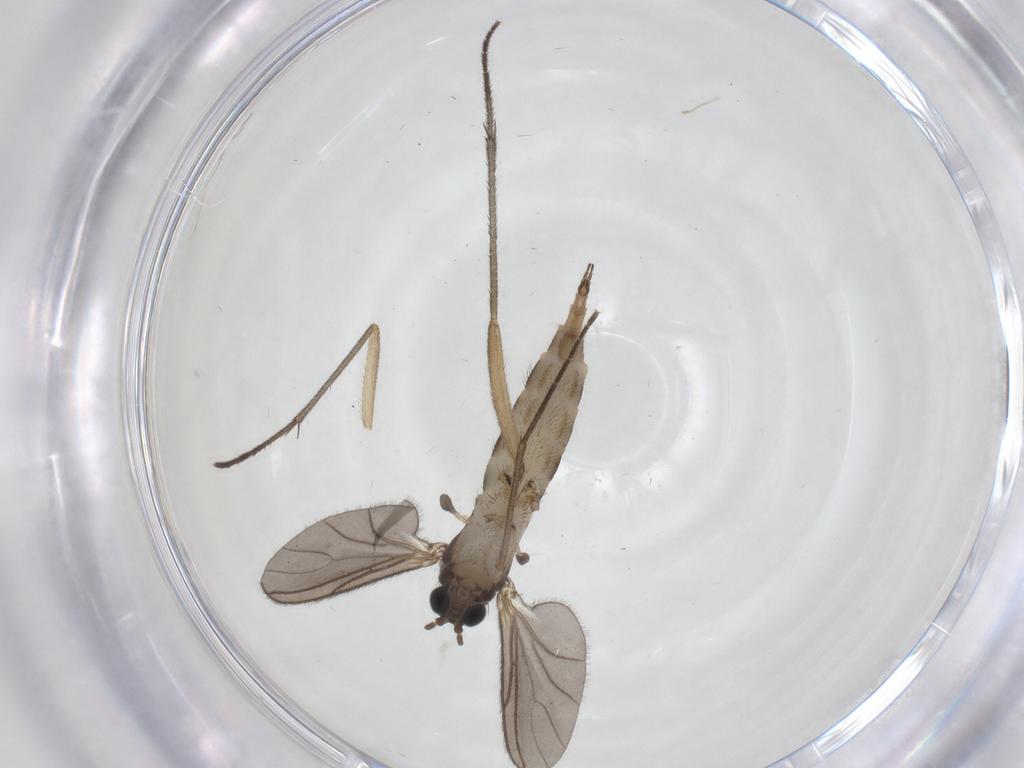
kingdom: Animalia
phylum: Arthropoda
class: Insecta
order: Diptera
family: Sciaridae
